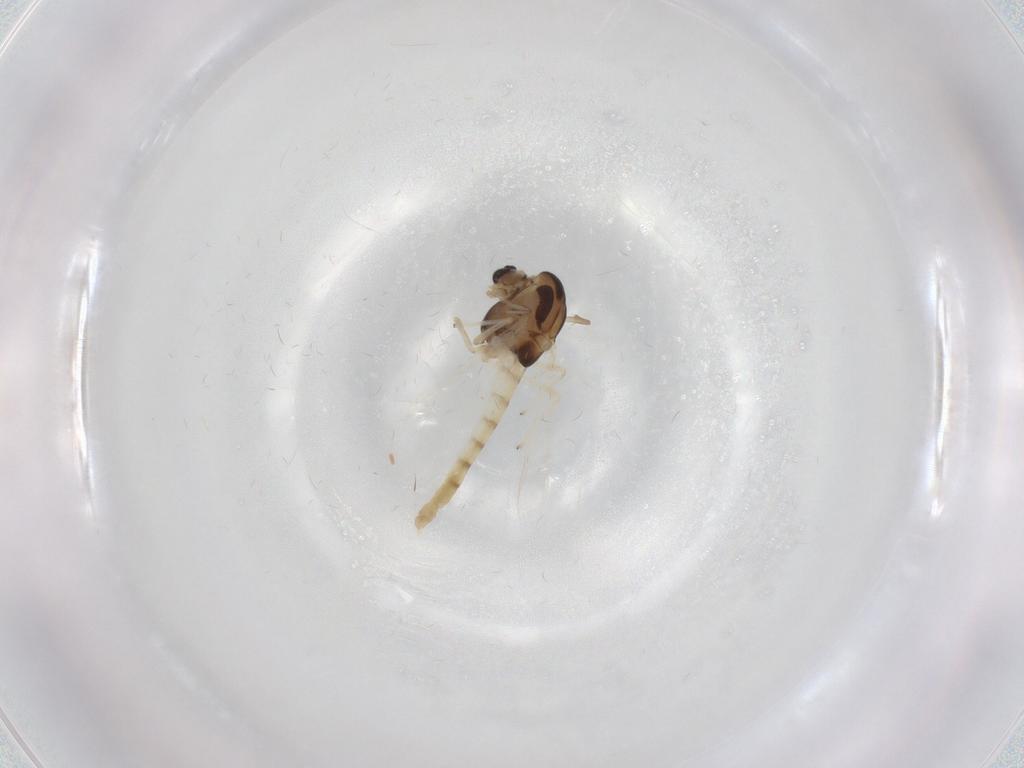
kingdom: Animalia
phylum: Arthropoda
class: Insecta
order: Diptera
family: Chironomidae
